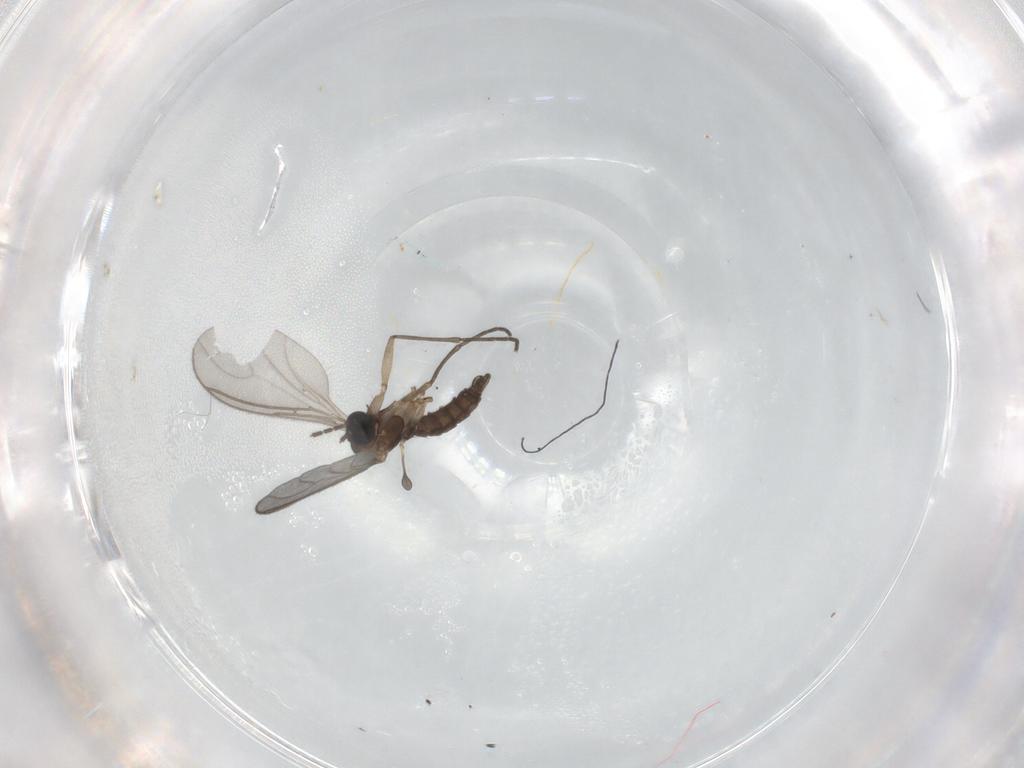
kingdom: Animalia
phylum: Arthropoda
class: Insecta
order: Diptera
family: Sciaridae
